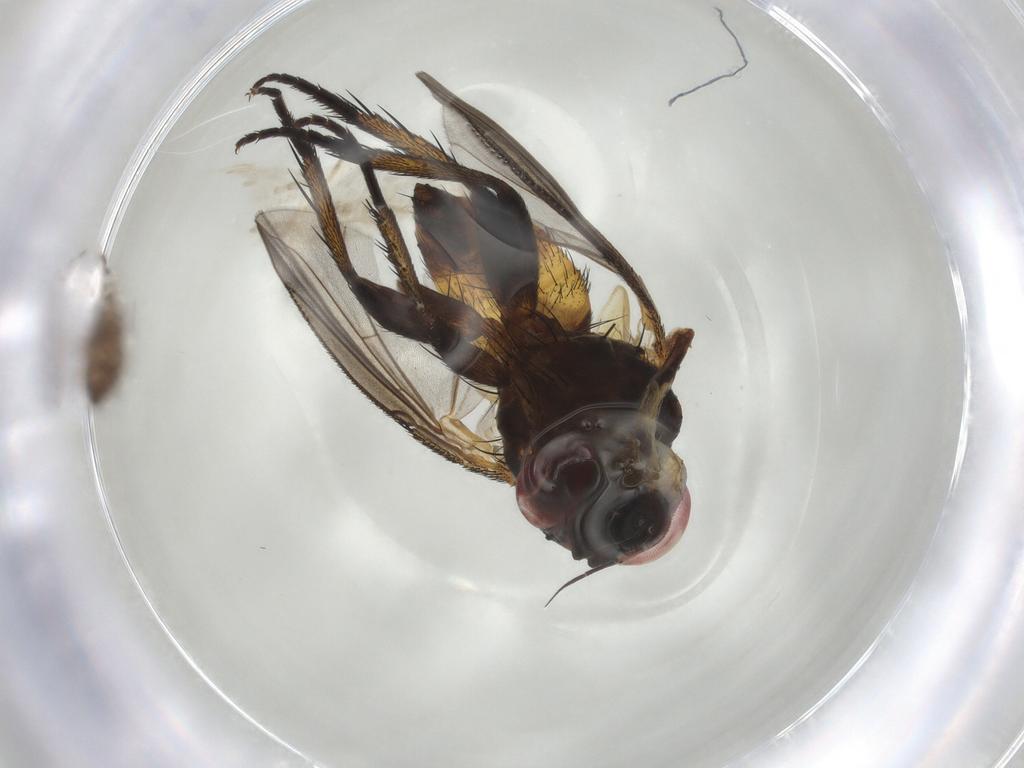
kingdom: Animalia
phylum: Arthropoda
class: Insecta
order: Diptera
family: Tachinidae
